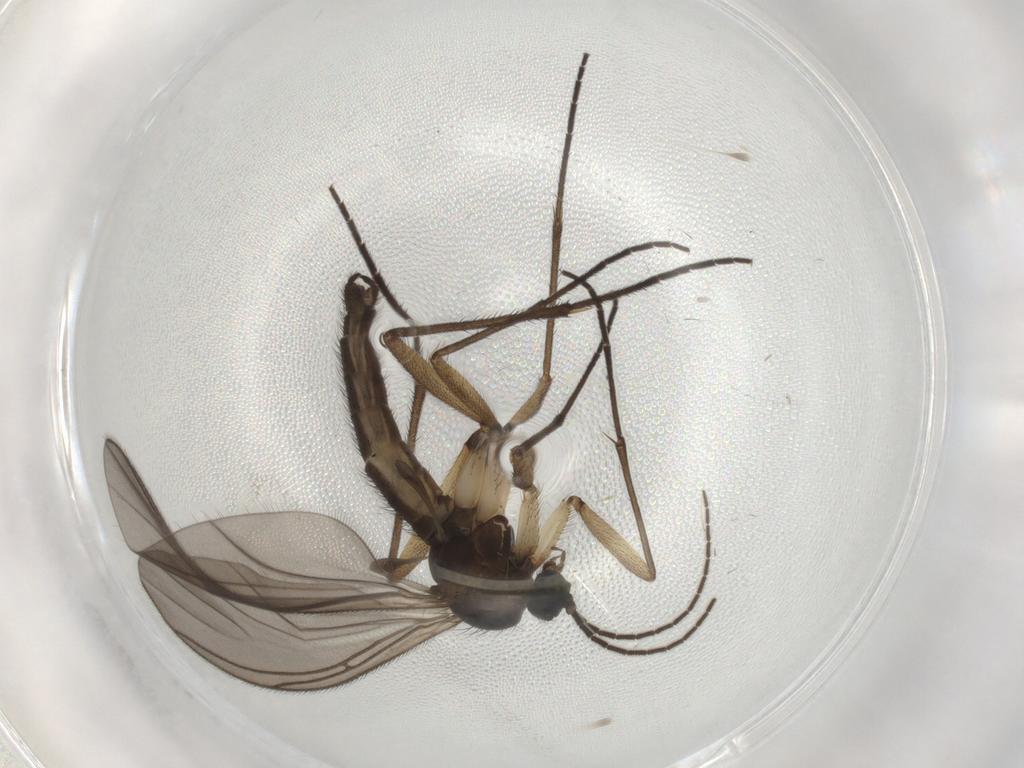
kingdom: Animalia
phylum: Arthropoda
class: Insecta
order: Diptera
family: Sciaridae
